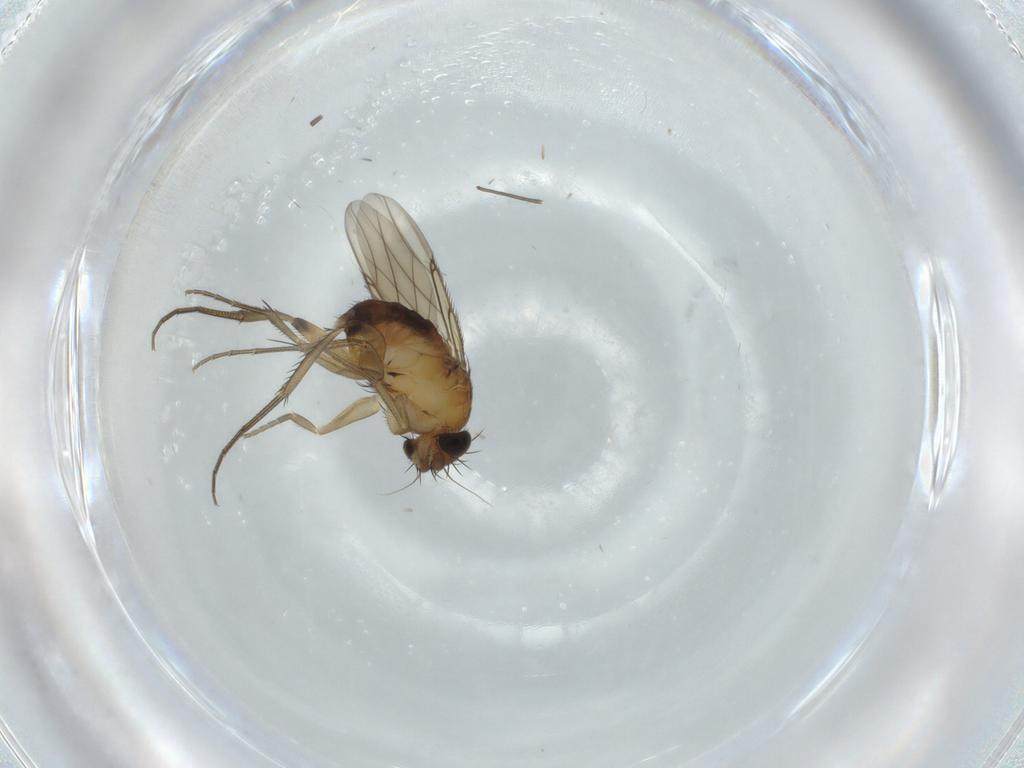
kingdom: Animalia
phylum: Arthropoda
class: Insecta
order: Diptera
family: Phoridae
